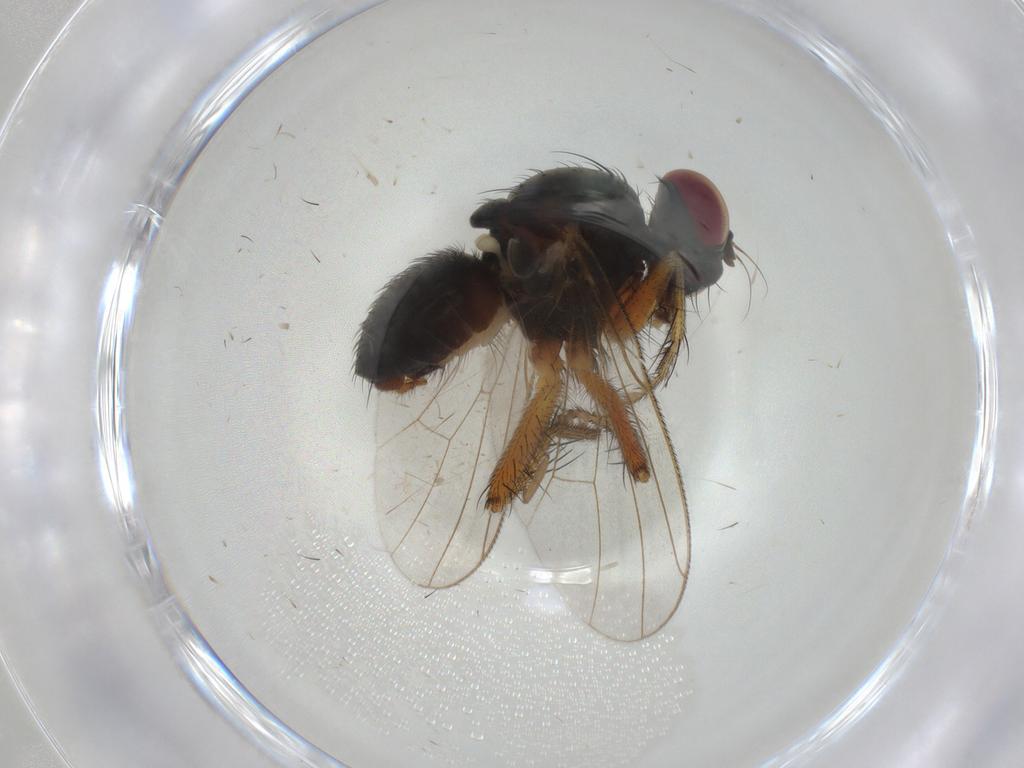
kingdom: Animalia
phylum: Arthropoda
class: Insecta
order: Diptera
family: Muscidae
